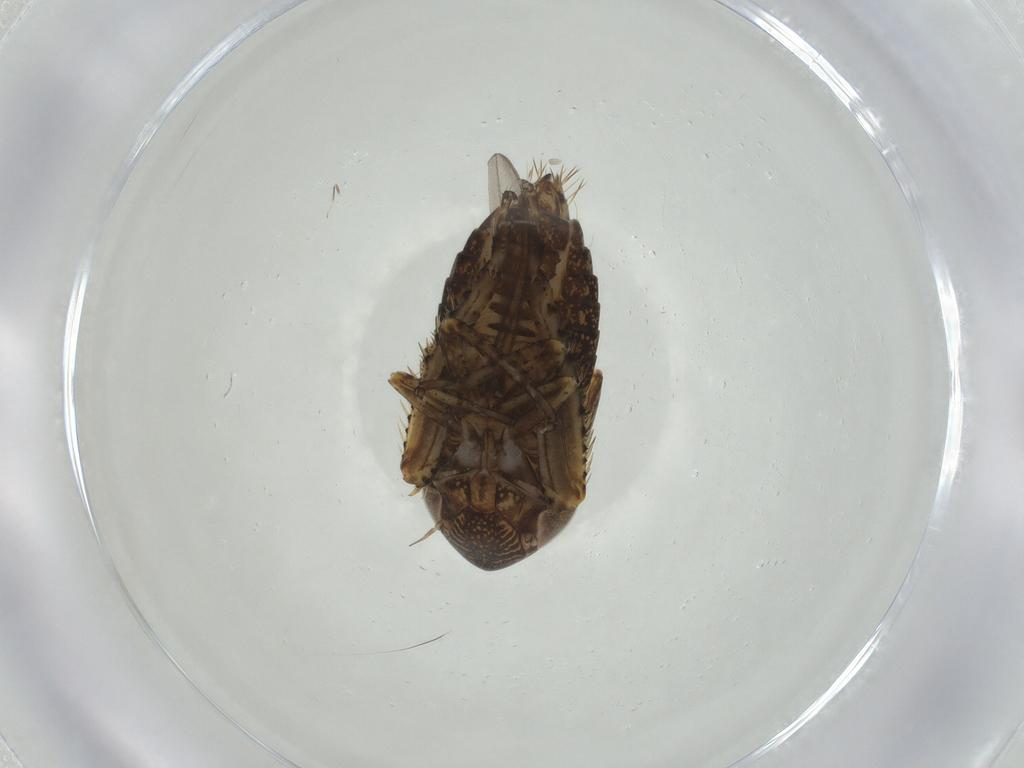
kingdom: Animalia
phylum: Arthropoda
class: Insecta
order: Hemiptera
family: Cicadellidae
